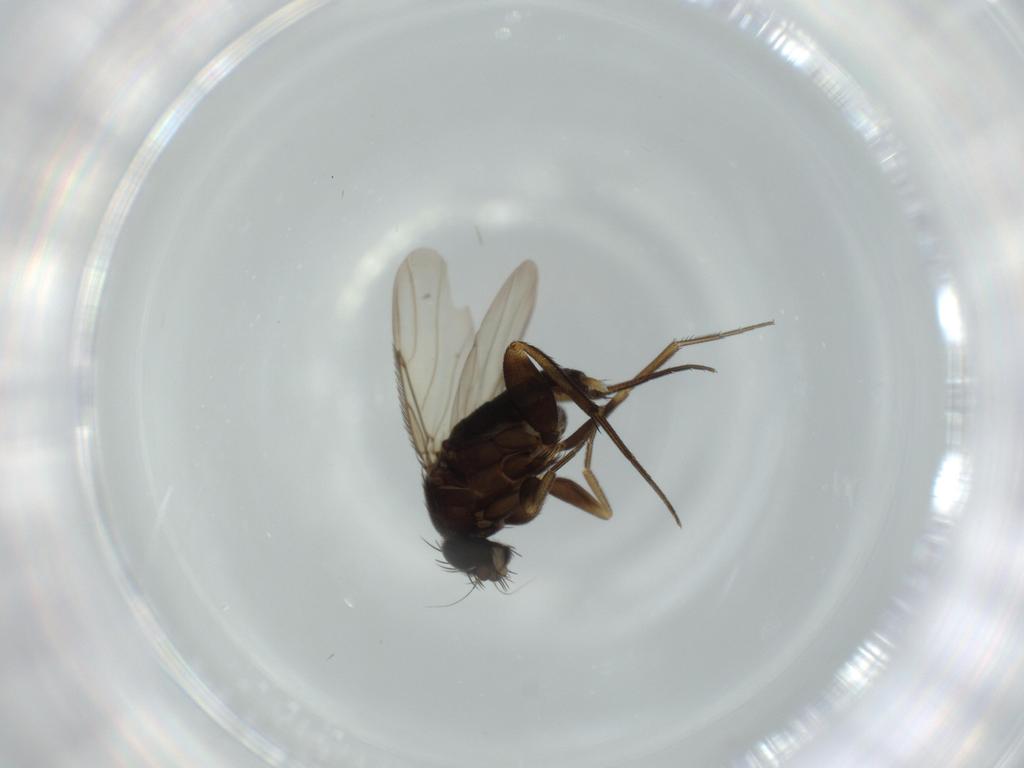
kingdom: Animalia
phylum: Arthropoda
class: Insecta
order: Diptera
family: Phoridae
